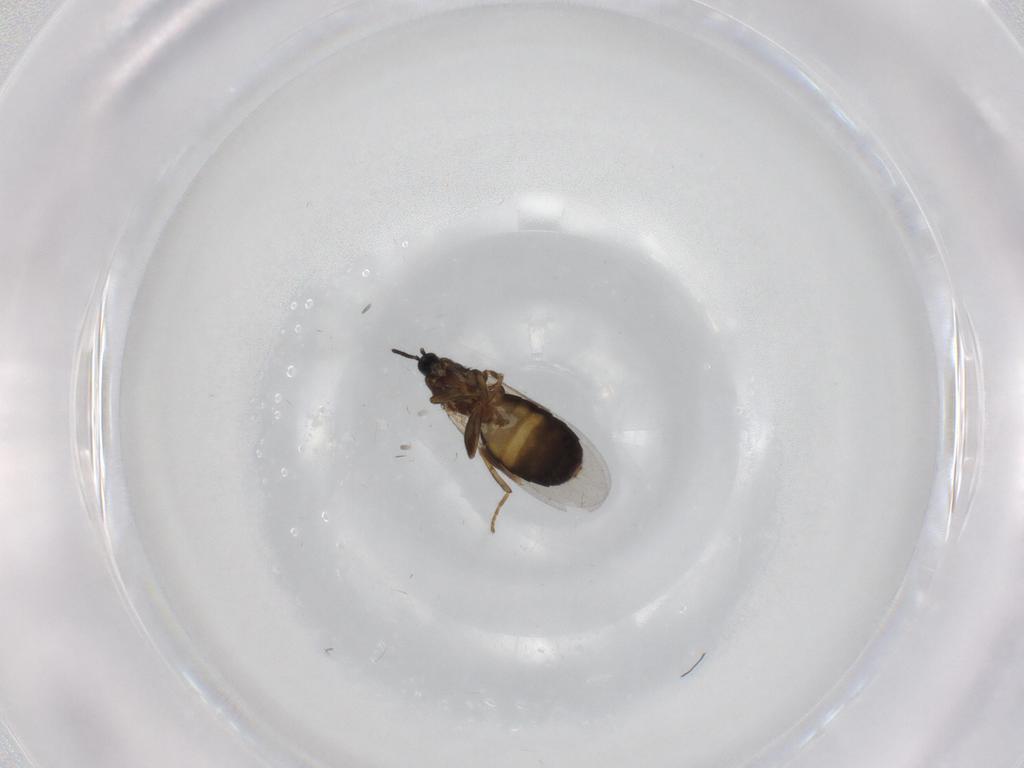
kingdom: Animalia
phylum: Arthropoda
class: Insecta
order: Diptera
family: Scatopsidae
